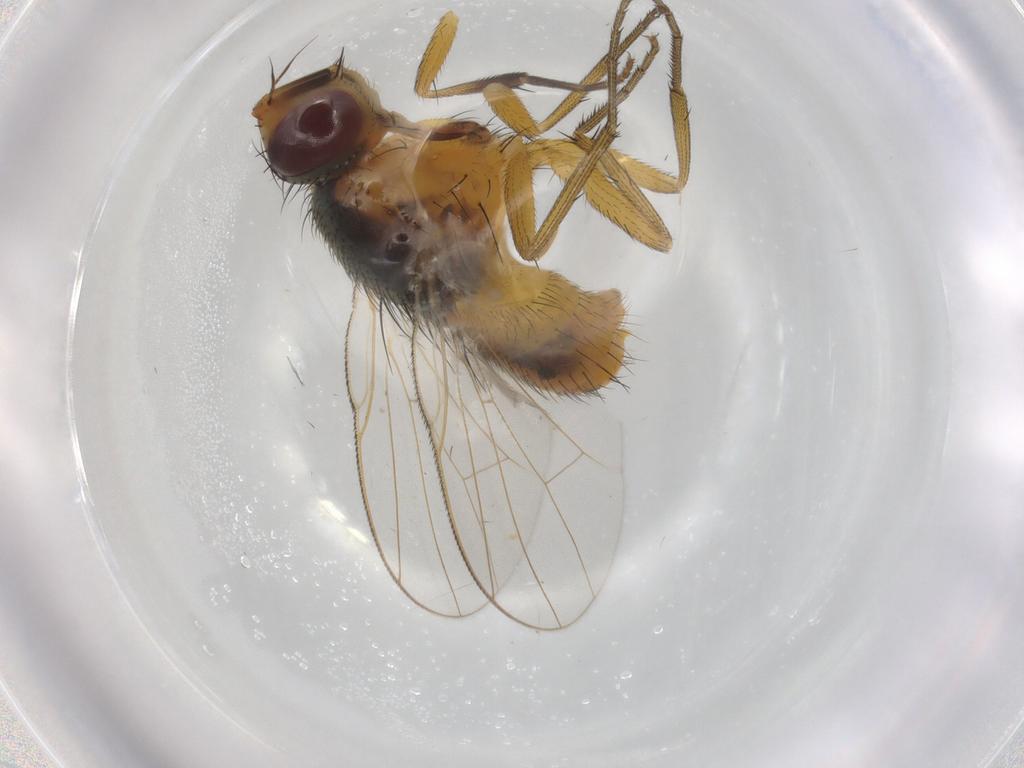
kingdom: Animalia
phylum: Arthropoda
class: Insecta
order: Diptera
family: Muscidae
